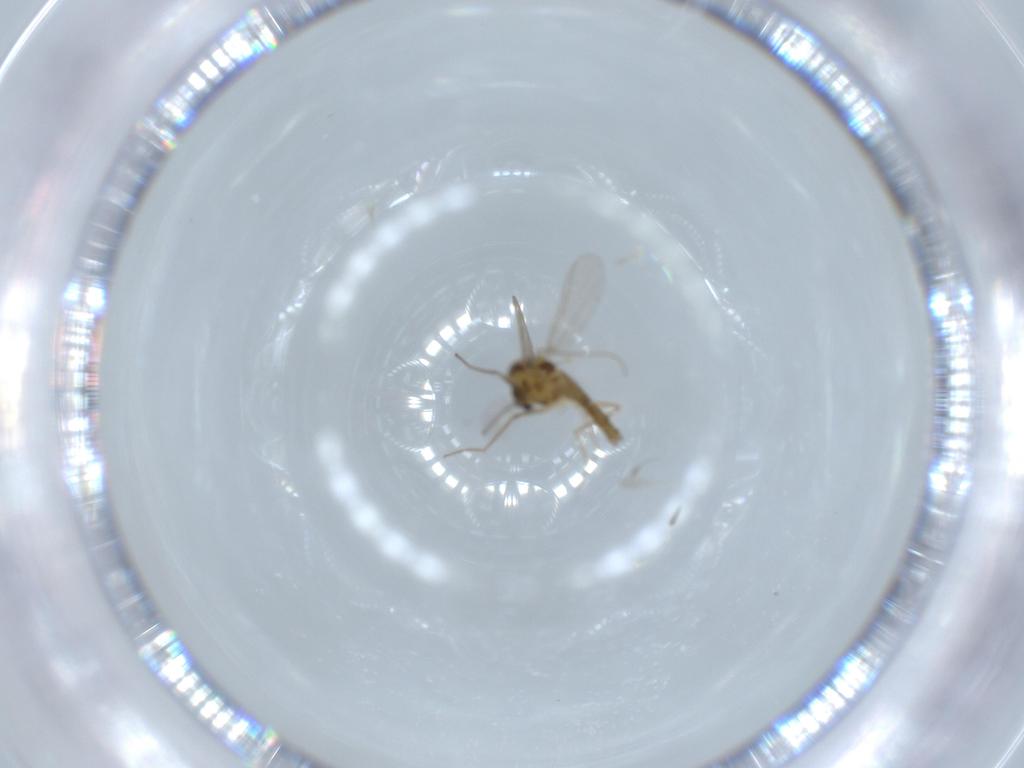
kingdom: Animalia
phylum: Arthropoda
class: Insecta
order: Diptera
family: Chironomidae
